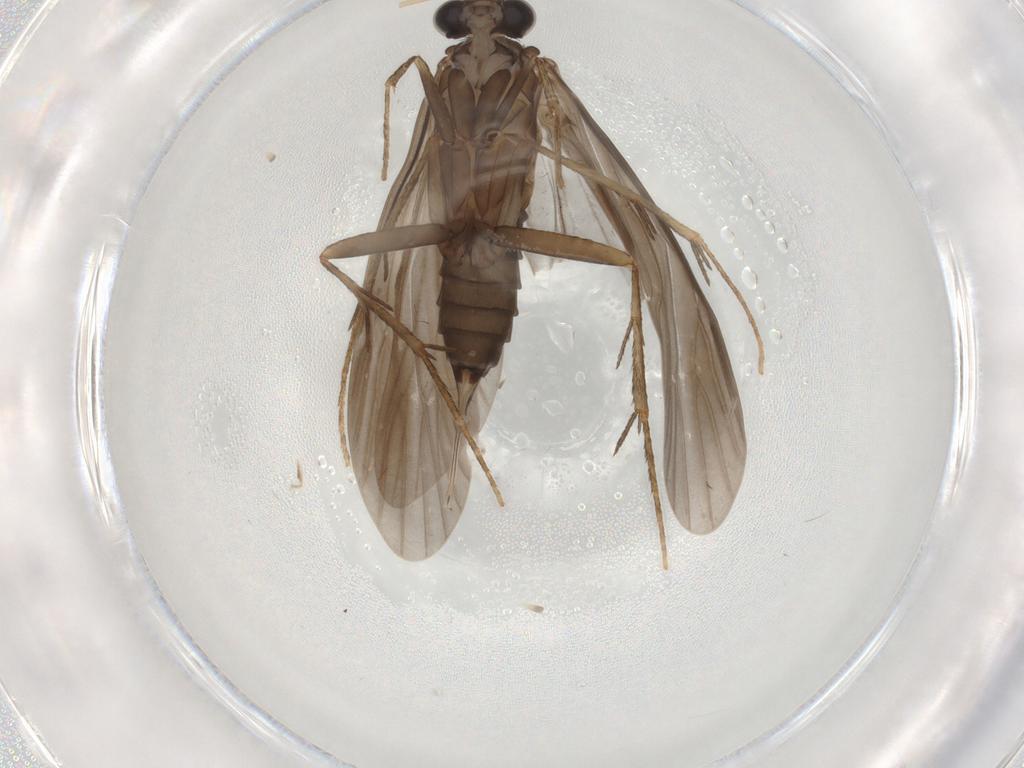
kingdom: Animalia
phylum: Arthropoda
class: Insecta
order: Trichoptera
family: Ecnomidae
